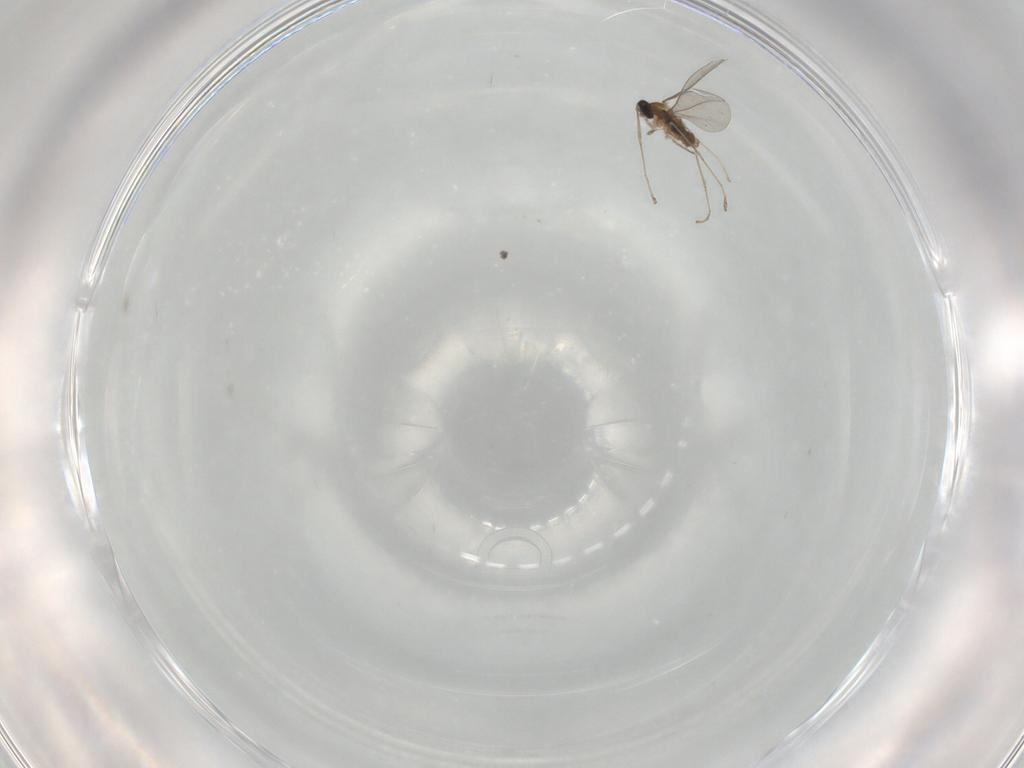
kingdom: Animalia
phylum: Arthropoda
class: Insecta
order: Diptera
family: Cecidomyiidae
